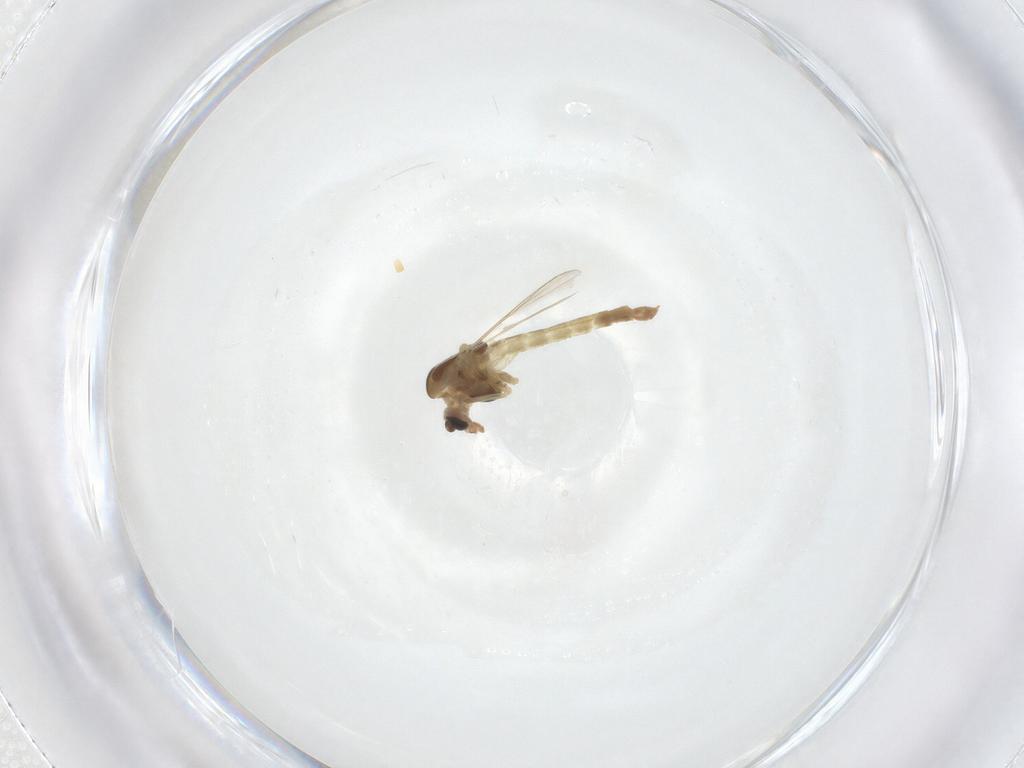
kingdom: Animalia
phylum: Arthropoda
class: Insecta
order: Diptera
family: Chironomidae
